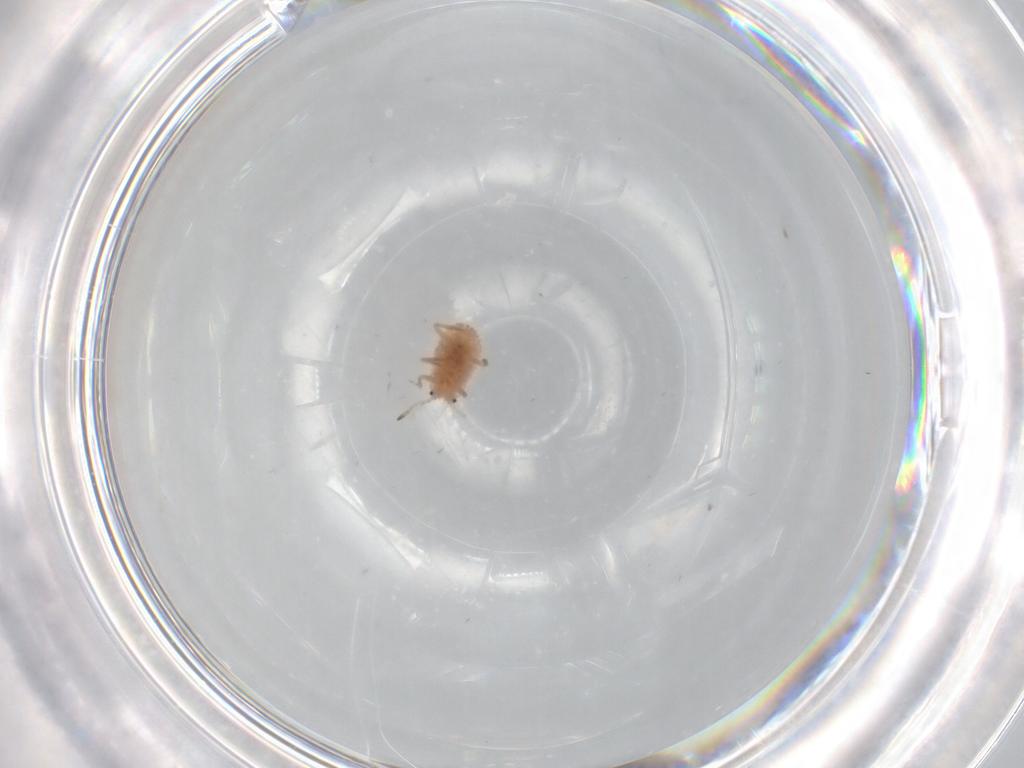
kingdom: Animalia
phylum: Arthropoda
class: Insecta
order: Hemiptera
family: Coccoidea_incertae_sedis
